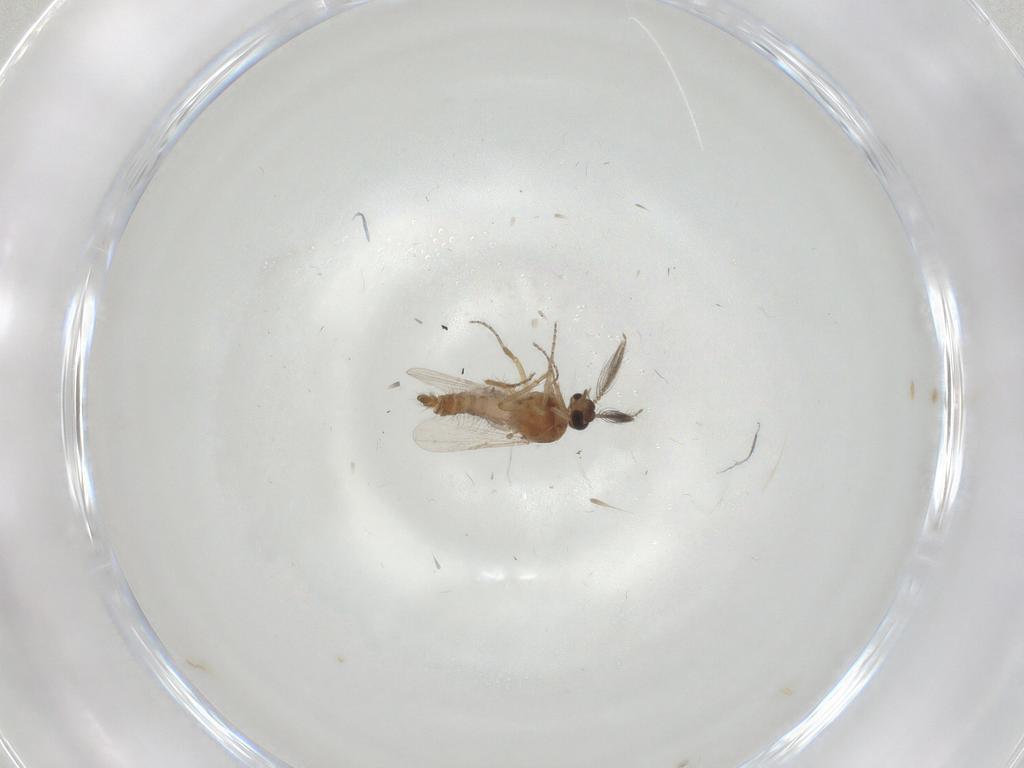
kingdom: Animalia
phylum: Arthropoda
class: Insecta
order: Diptera
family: Ceratopogonidae
